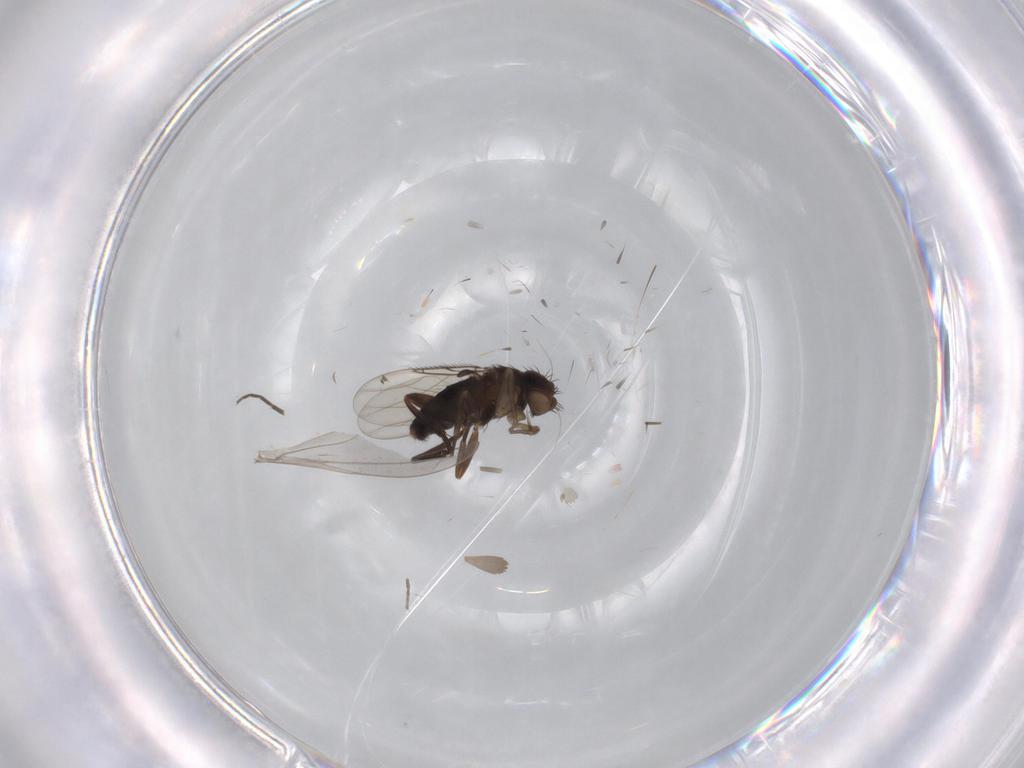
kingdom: Animalia
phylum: Arthropoda
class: Insecta
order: Diptera
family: Phoridae
